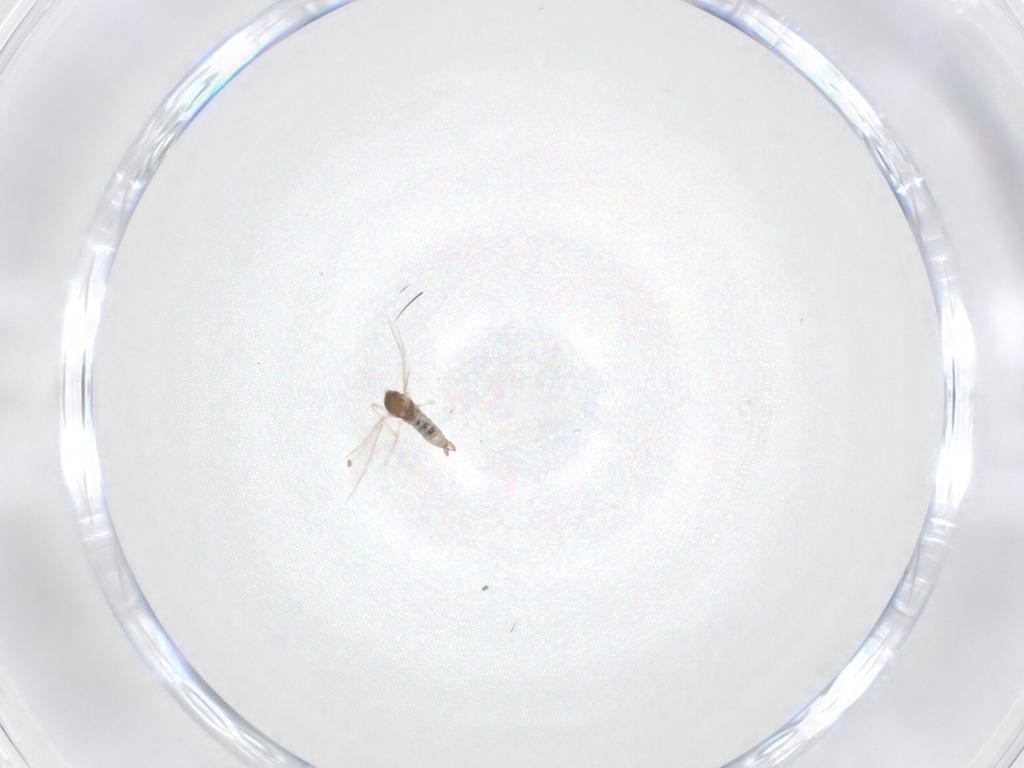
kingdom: Animalia
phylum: Arthropoda
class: Insecta
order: Diptera
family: Cecidomyiidae
